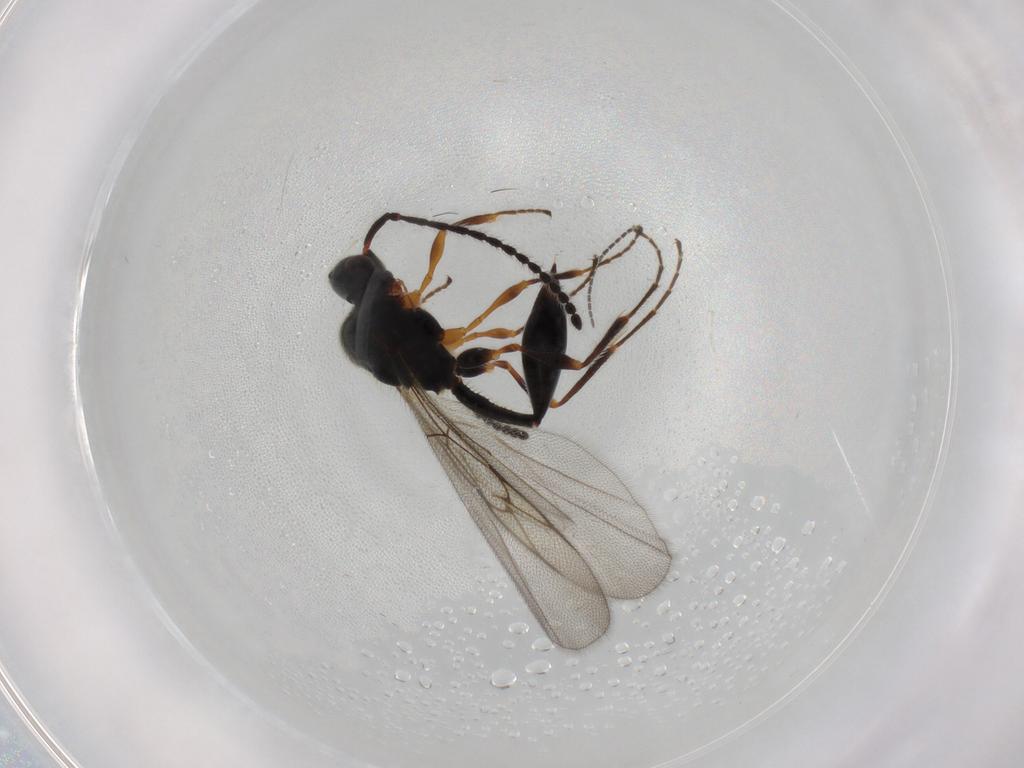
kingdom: Animalia
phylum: Arthropoda
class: Insecta
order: Hymenoptera
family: Diapriidae
